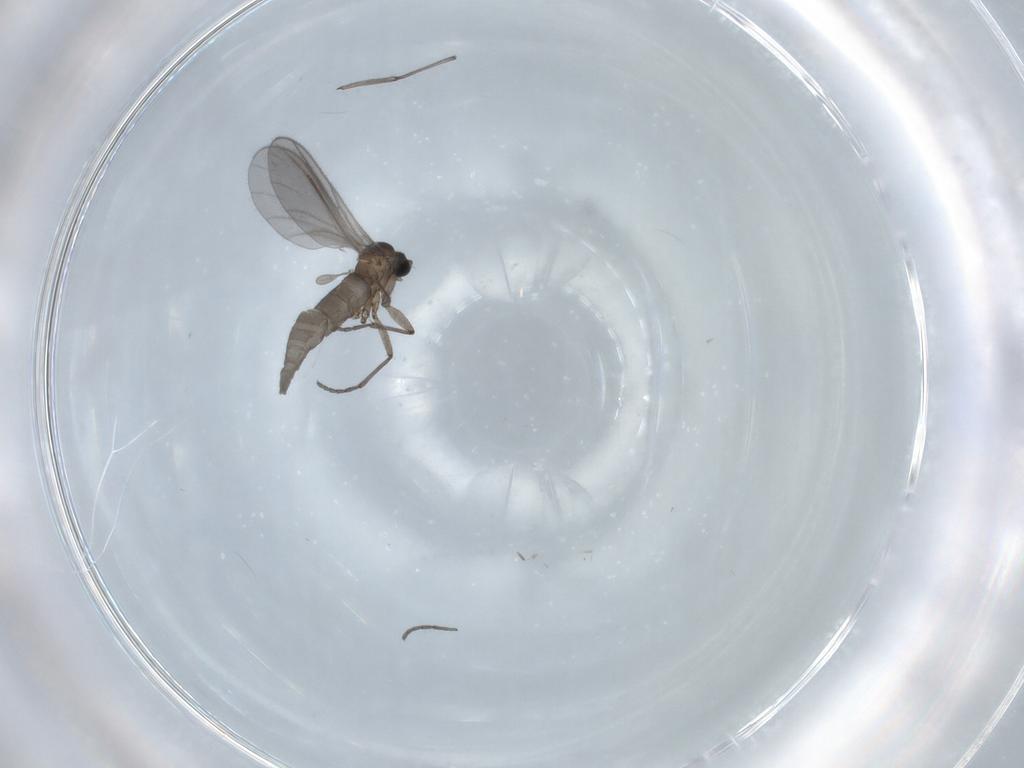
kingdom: Animalia
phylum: Arthropoda
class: Insecta
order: Diptera
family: Sciaridae
